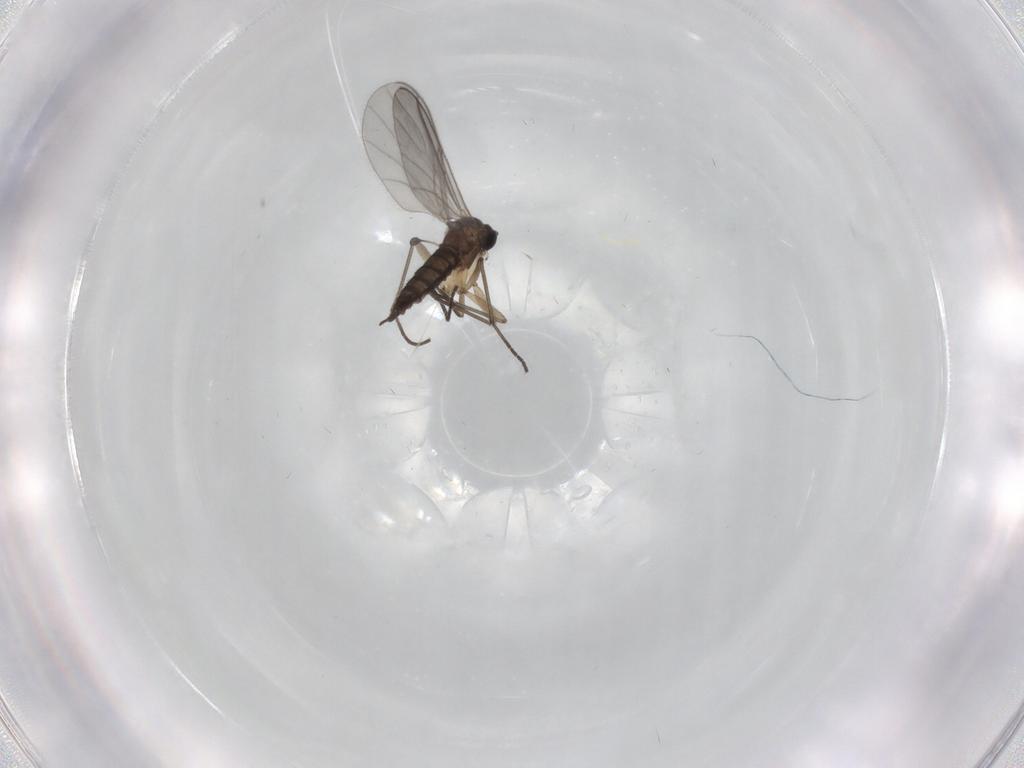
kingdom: Animalia
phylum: Arthropoda
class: Insecta
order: Diptera
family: Sciaridae
